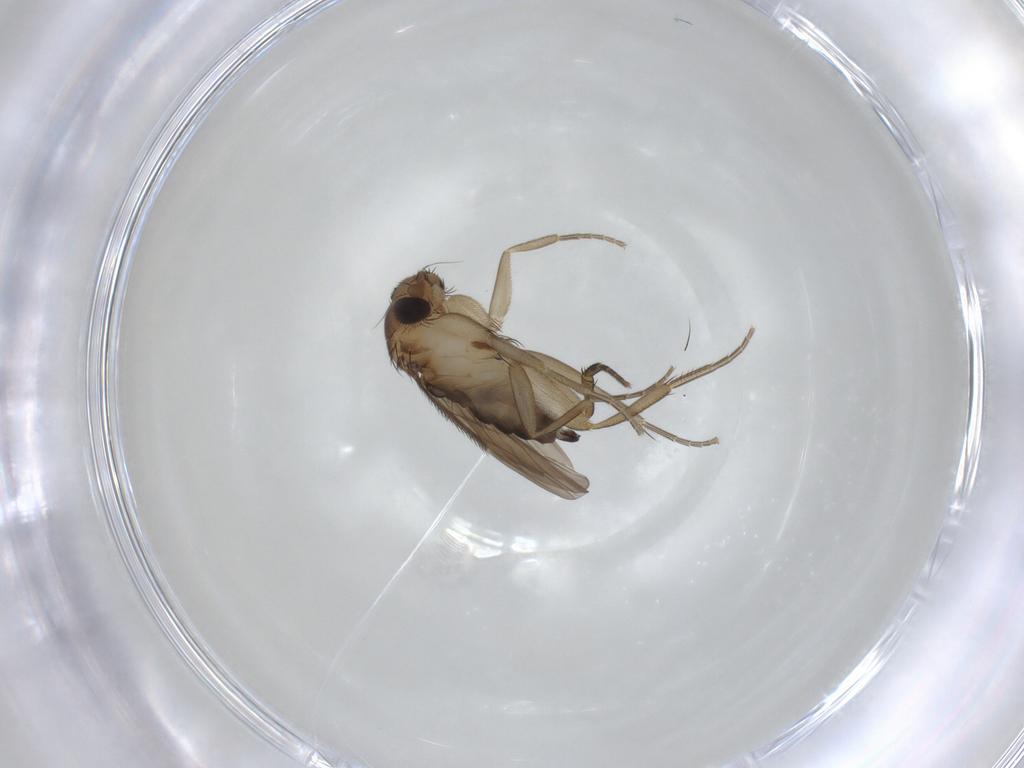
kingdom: Animalia
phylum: Arthropoda
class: Insecta
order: Diptera
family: Phoridae
